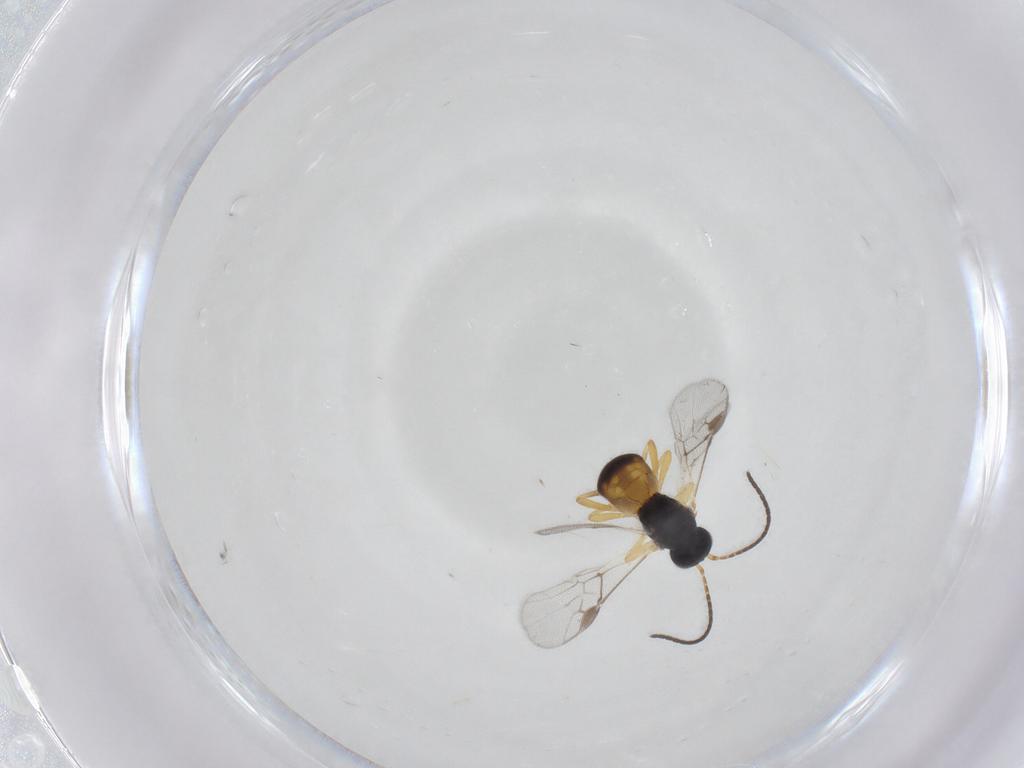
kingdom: Animalia
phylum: Arthropoda
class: Insecta
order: Hymenoptera
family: Braconidae
